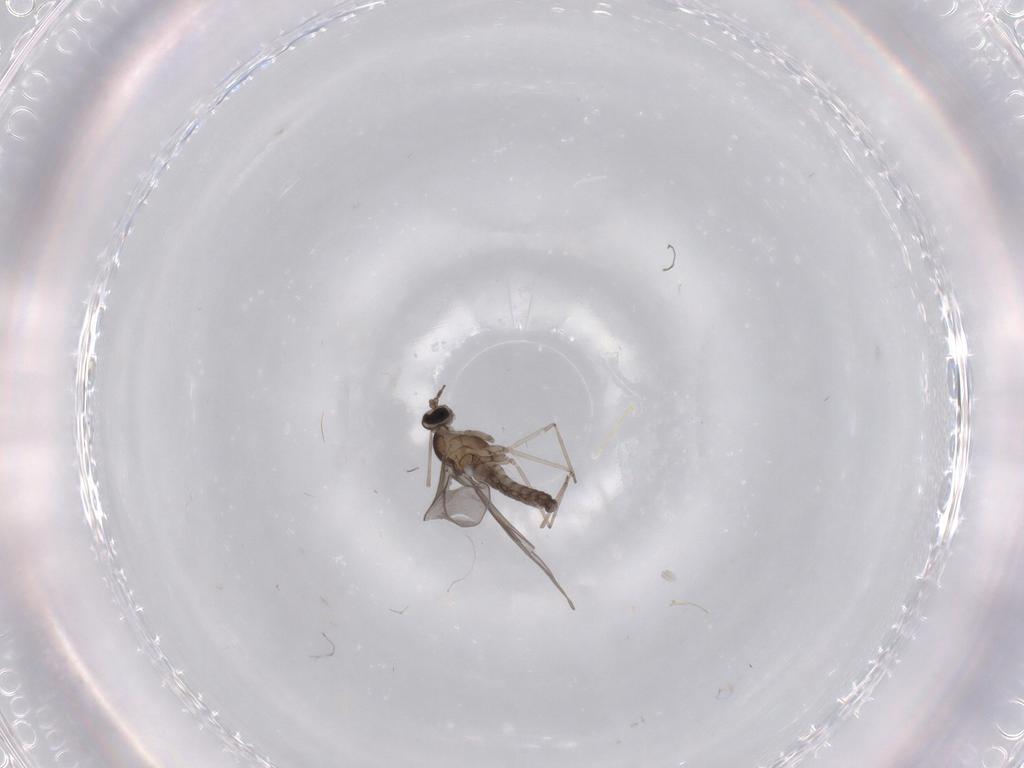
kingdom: Animalia
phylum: Arthropoda
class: Insecta
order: Diptera
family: Cecidomyiidae
